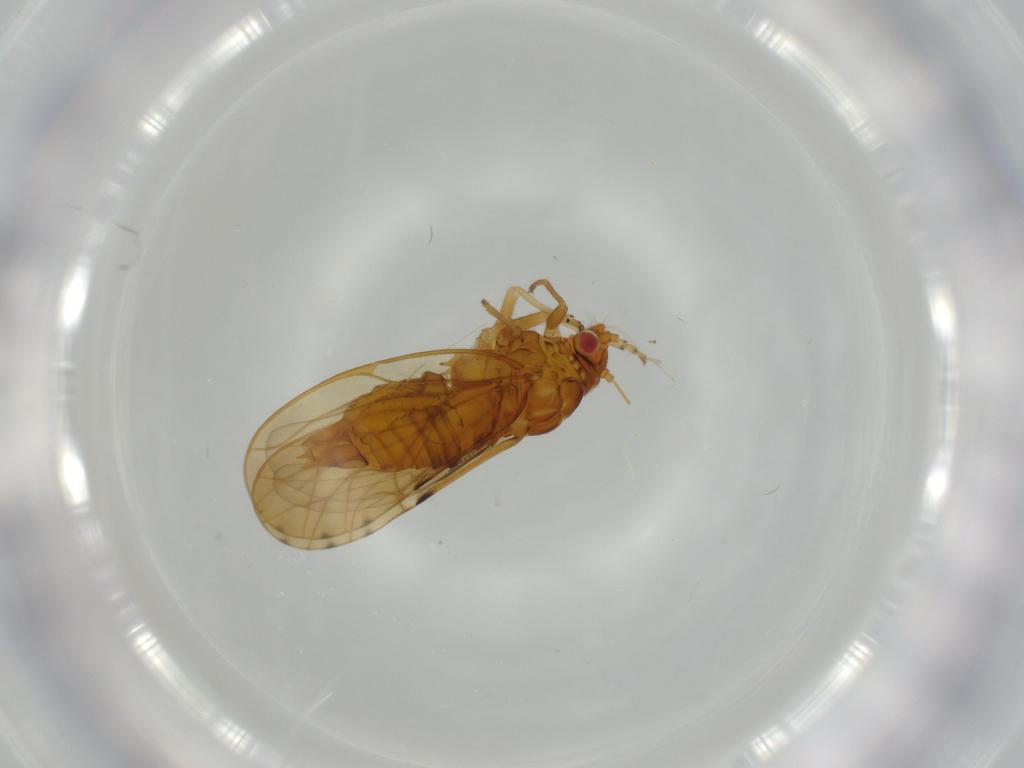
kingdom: Animalia
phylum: Arthropoda
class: Insecta
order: Hemiptera
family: Psylloidea_incertae_sedis
